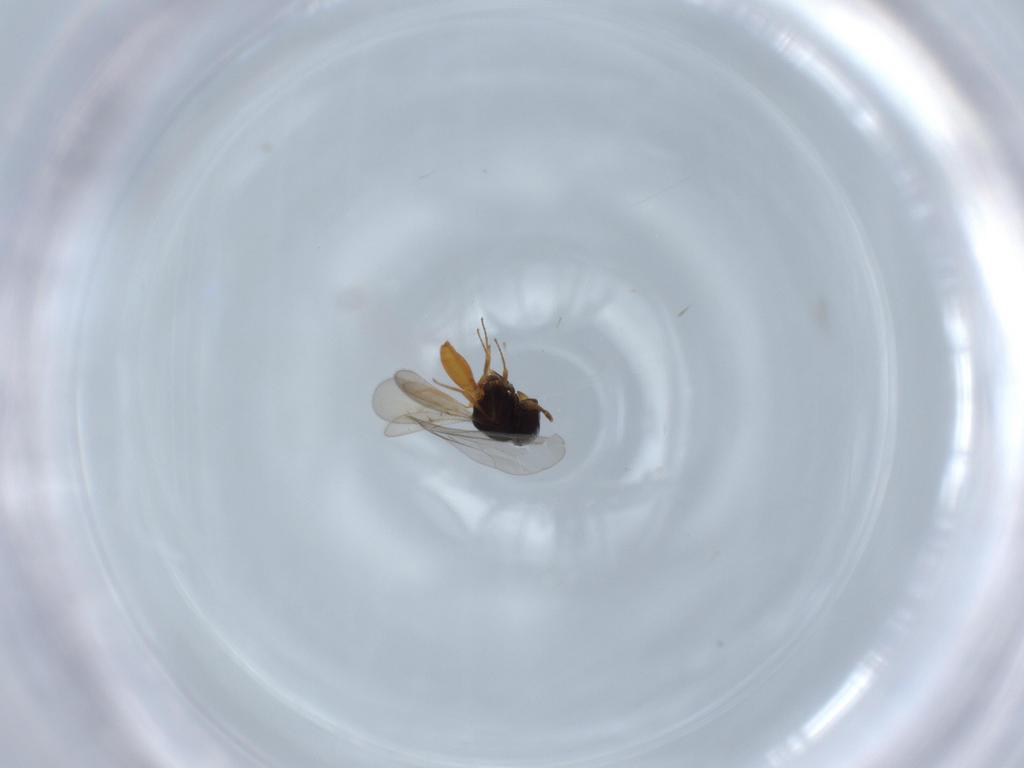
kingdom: Animalia
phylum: Arthropoda
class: Insecta
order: Hymenoptera
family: Scelionidae
